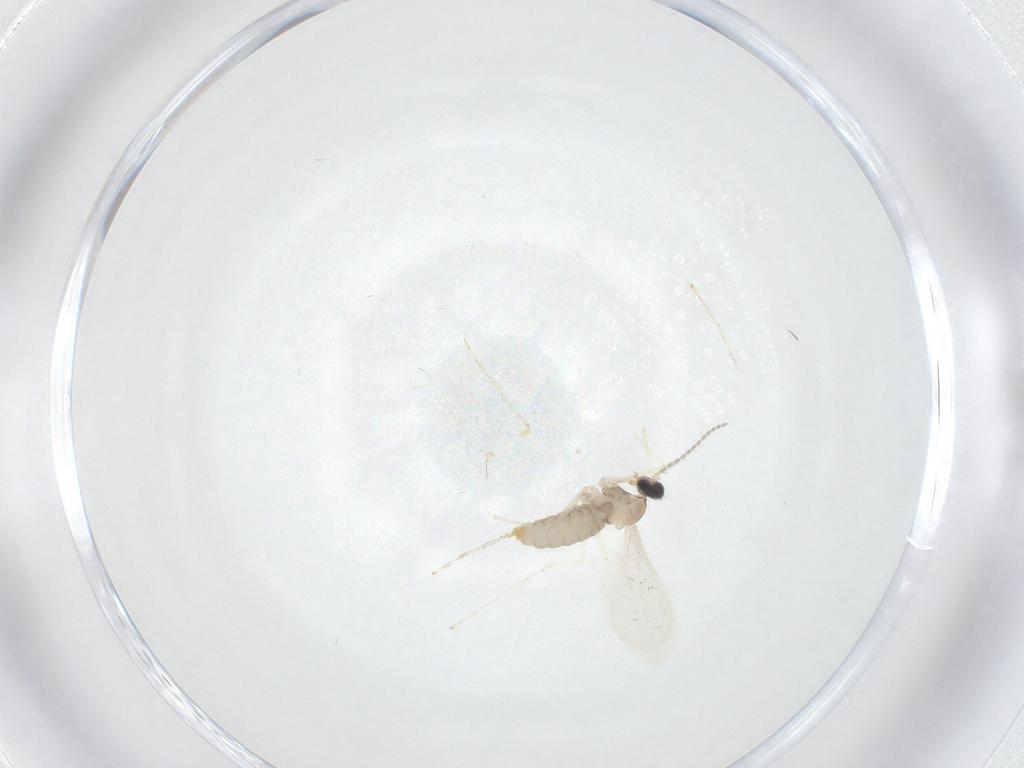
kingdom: Animalia
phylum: Arthropoda
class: Insecta
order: Diptera
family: Cecidomyiidae
